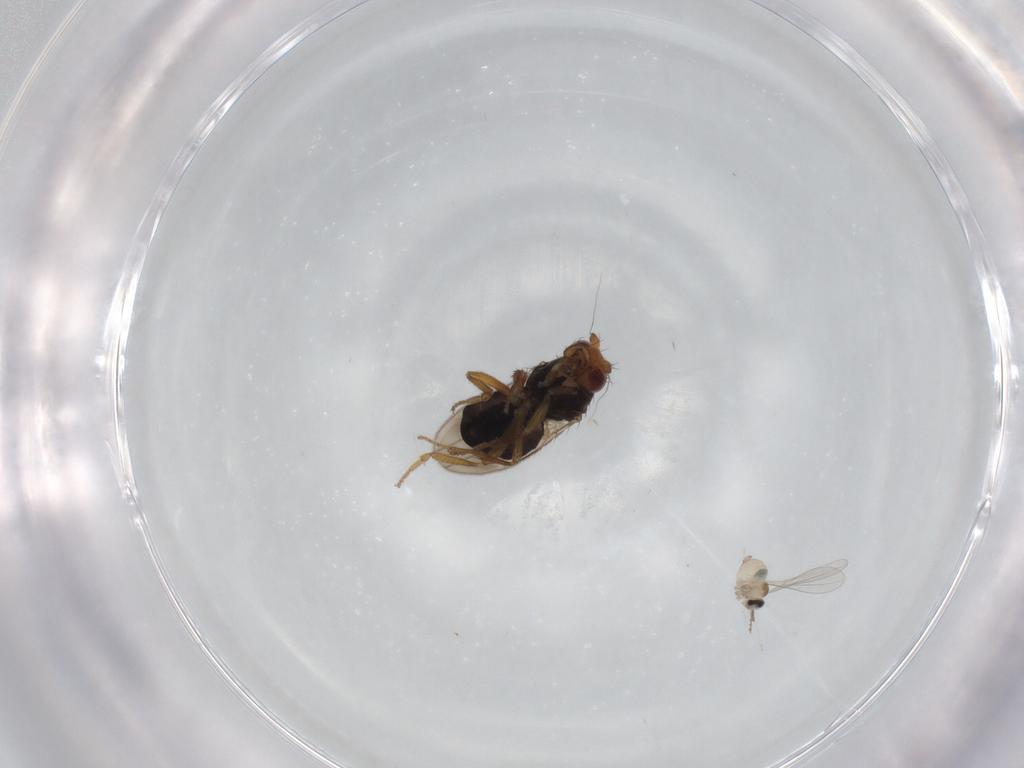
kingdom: Animalia
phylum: Arthropoda
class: Insecta
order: Diptera
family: Sphaeroceridae
